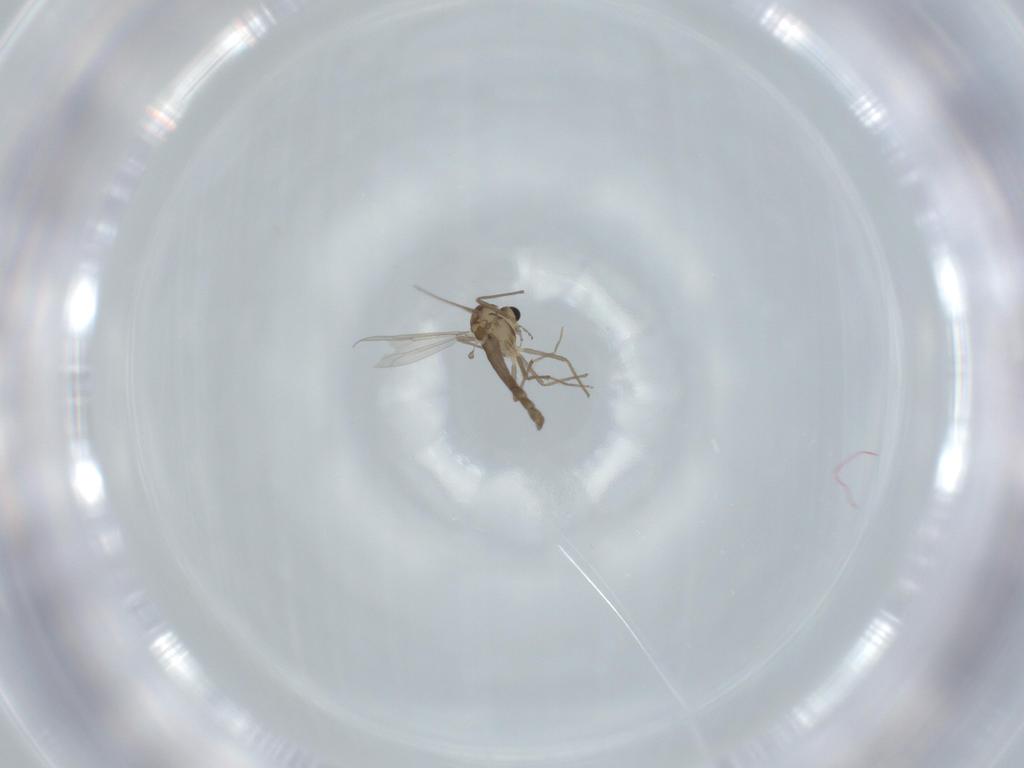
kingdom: Animalia
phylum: Arthropoda
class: Insecta
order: Diptera
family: Chironomidae
